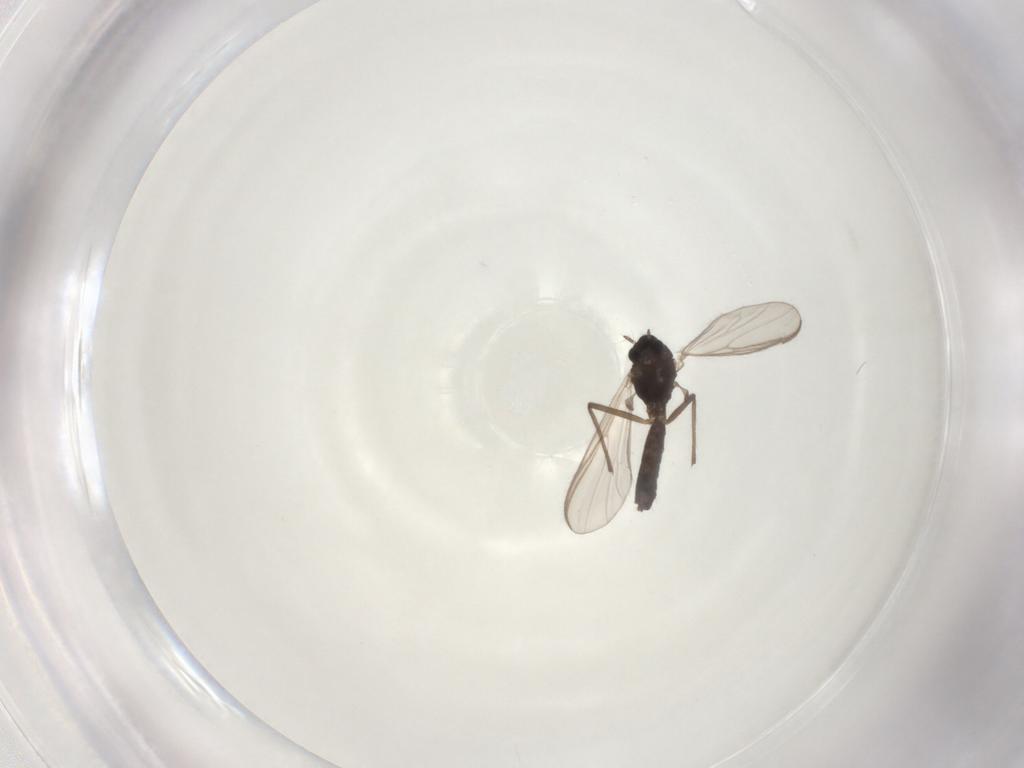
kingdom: Animalia
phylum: Arthropoda
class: Insecta
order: Diptera
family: Chironomidae
